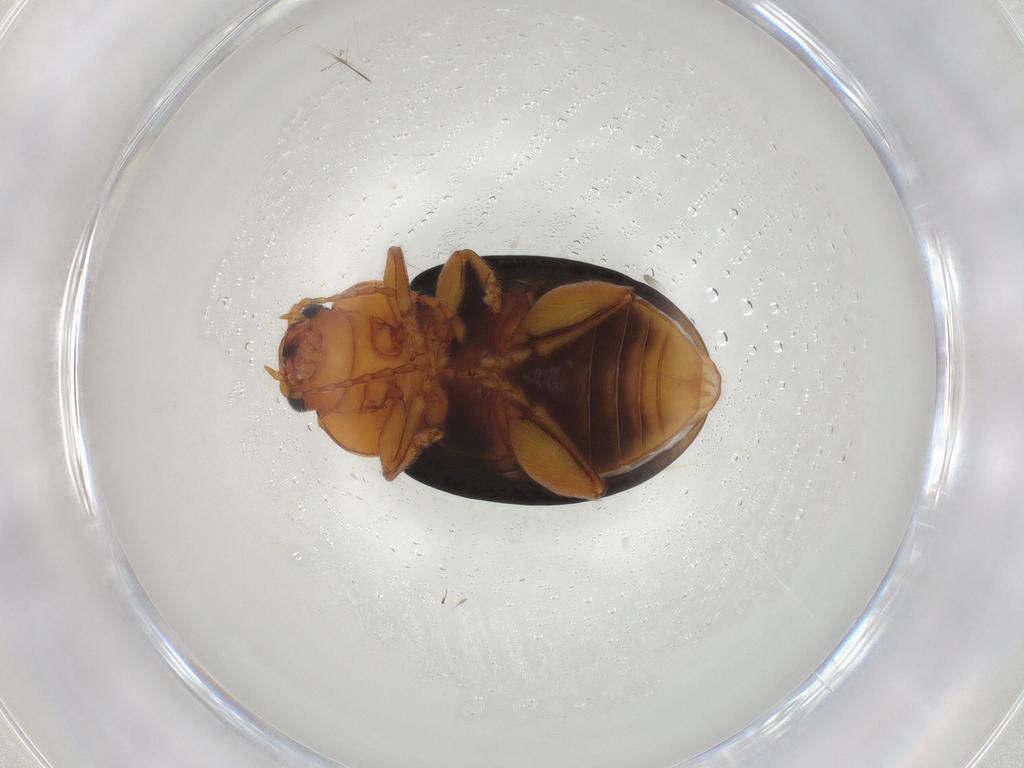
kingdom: Animalia
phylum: Arthropoda
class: Insecta
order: Coleoptera
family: Chrysomelidae
